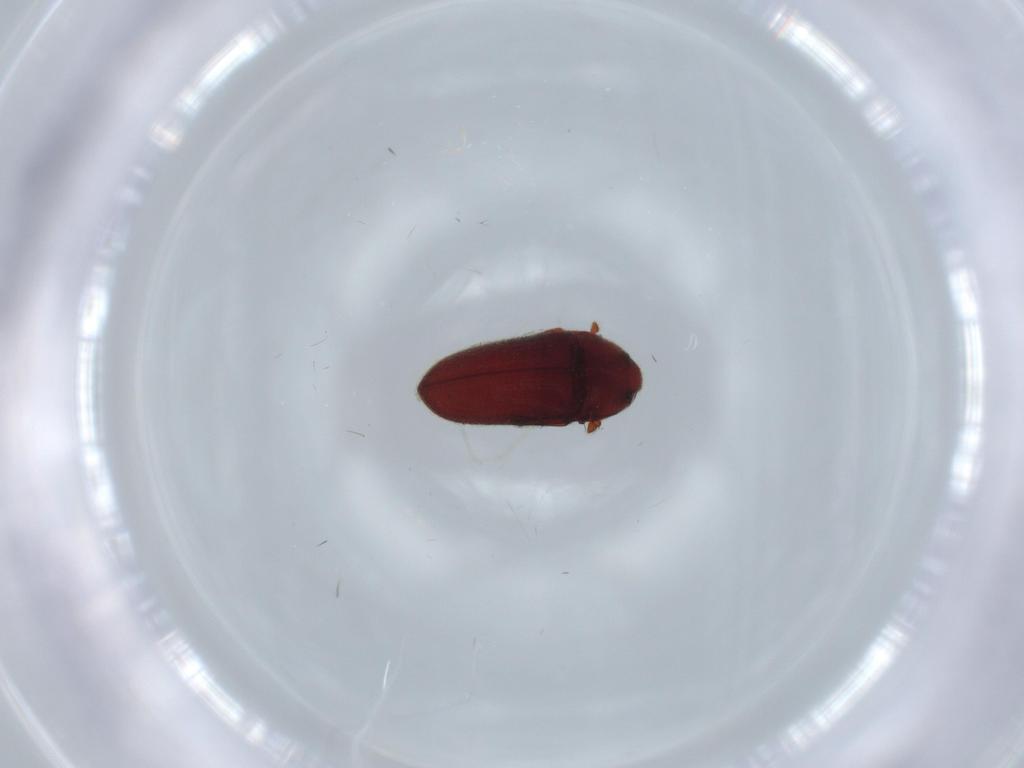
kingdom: Animalia
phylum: Arthropoda
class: Insecta
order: Coleoptera
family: Throscidae
